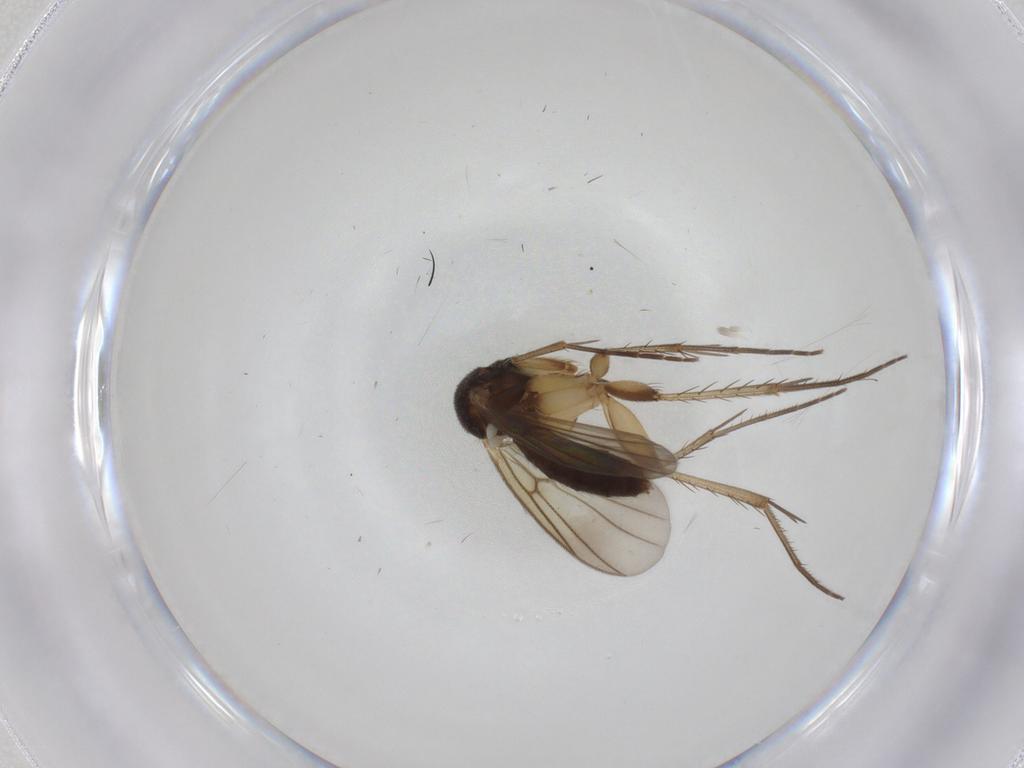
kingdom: Animalia
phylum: Arthropoda
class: Insecta
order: Diptera
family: Mycetophilidae
